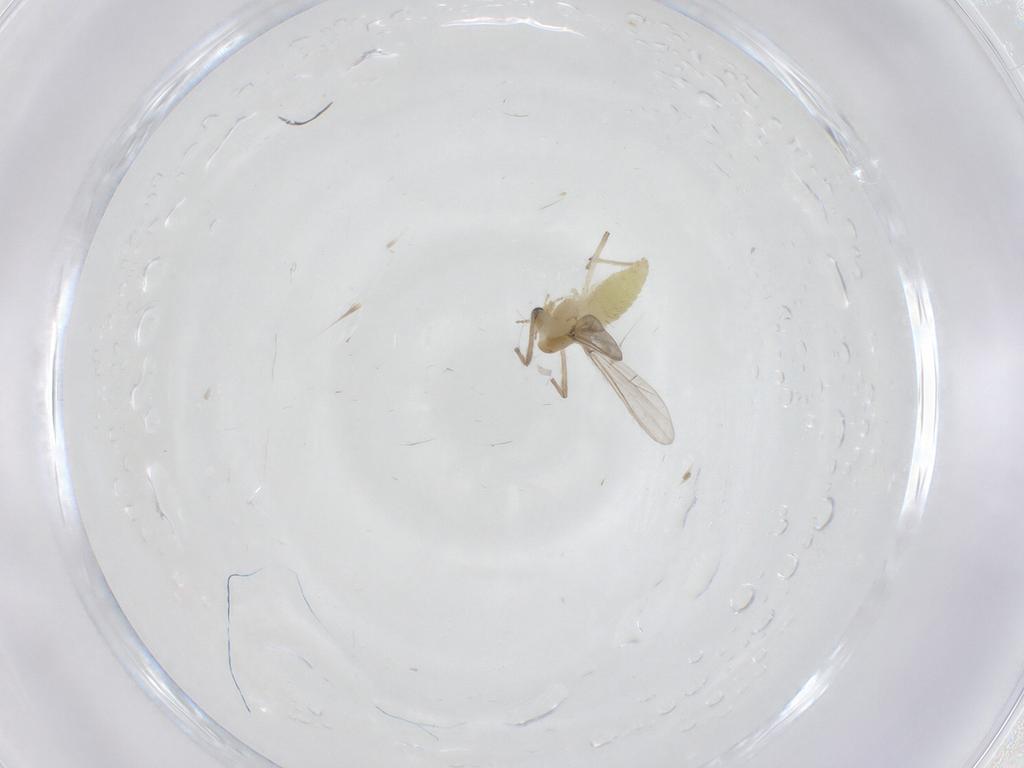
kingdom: Animalia
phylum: Arthropoda
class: Insecta
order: Diptera
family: Chironomidae
